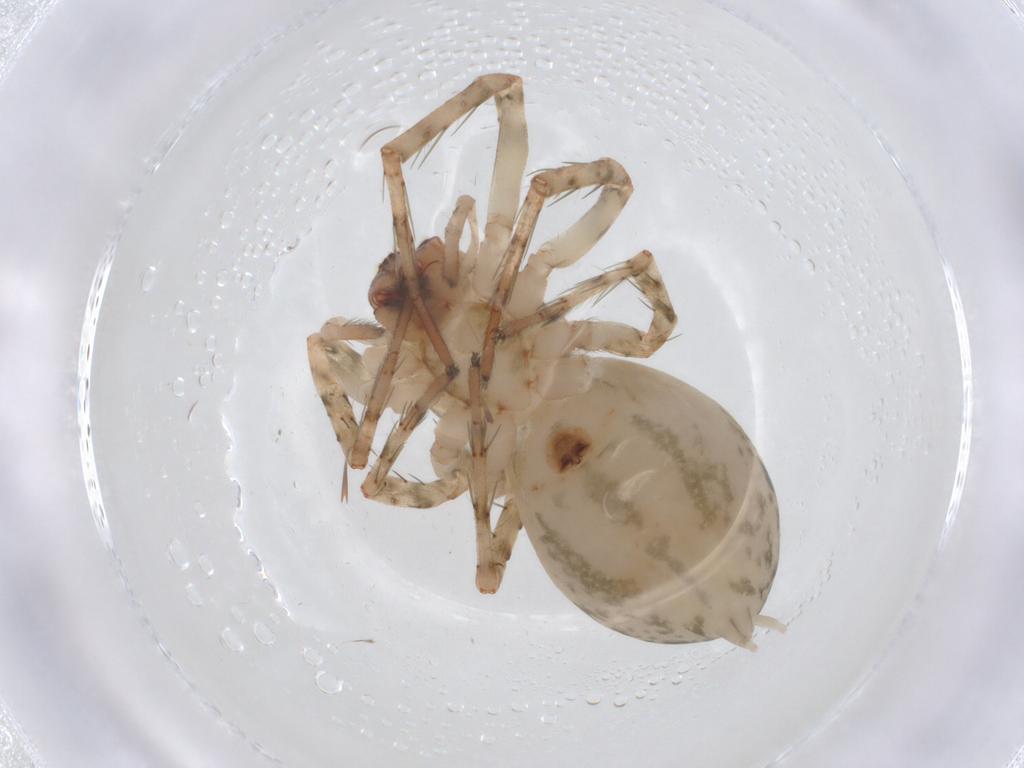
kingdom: Animalia
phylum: Arthropoda
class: Arachnida
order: Araneae
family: Anyphaenidae
